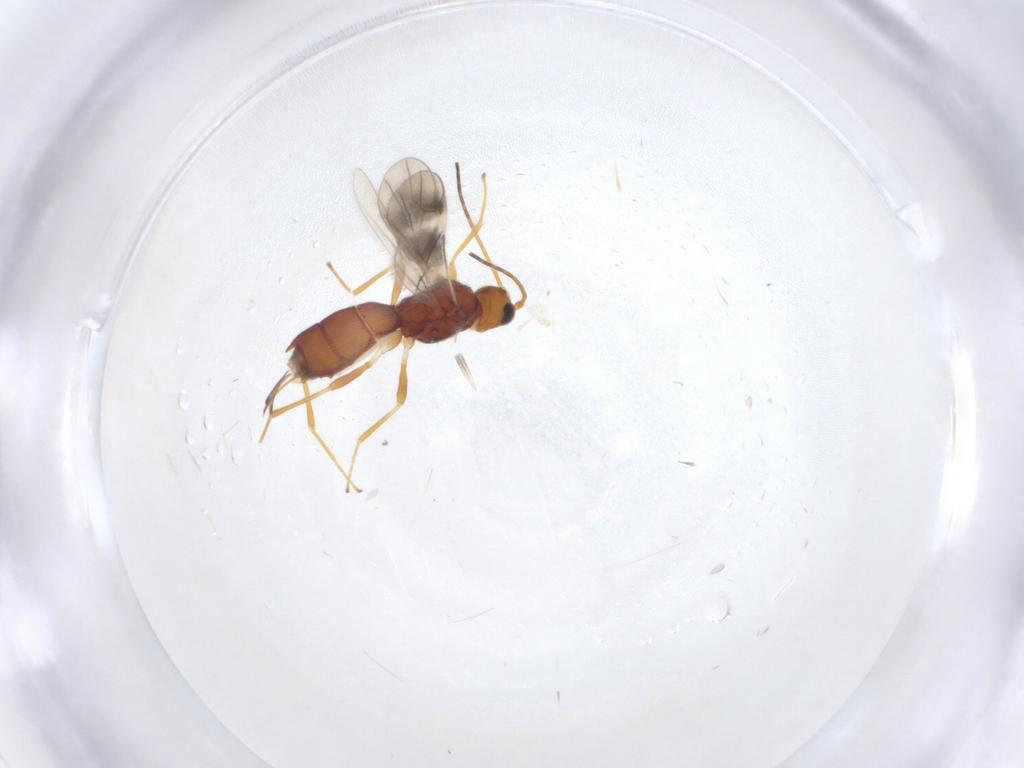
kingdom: Animalia
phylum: Arthropoda
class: Insecta
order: Hymenoptera
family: Braconidae
